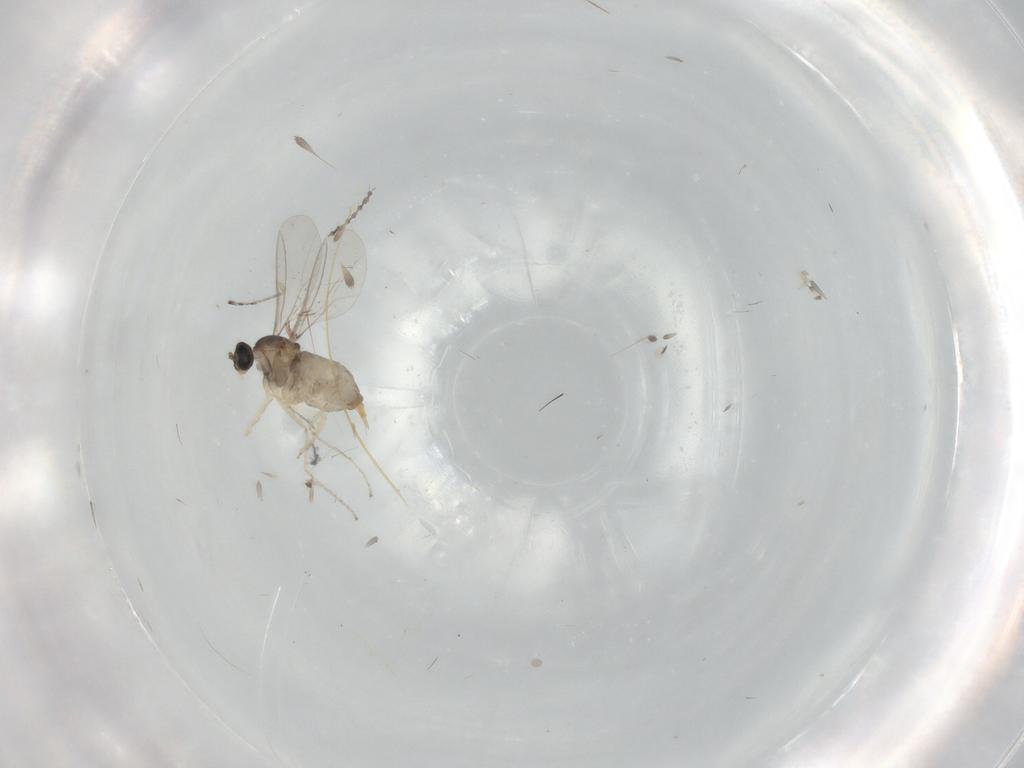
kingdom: Animalia
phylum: Arthropoda
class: Insecta
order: Diptera
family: Cecidomyiidae
